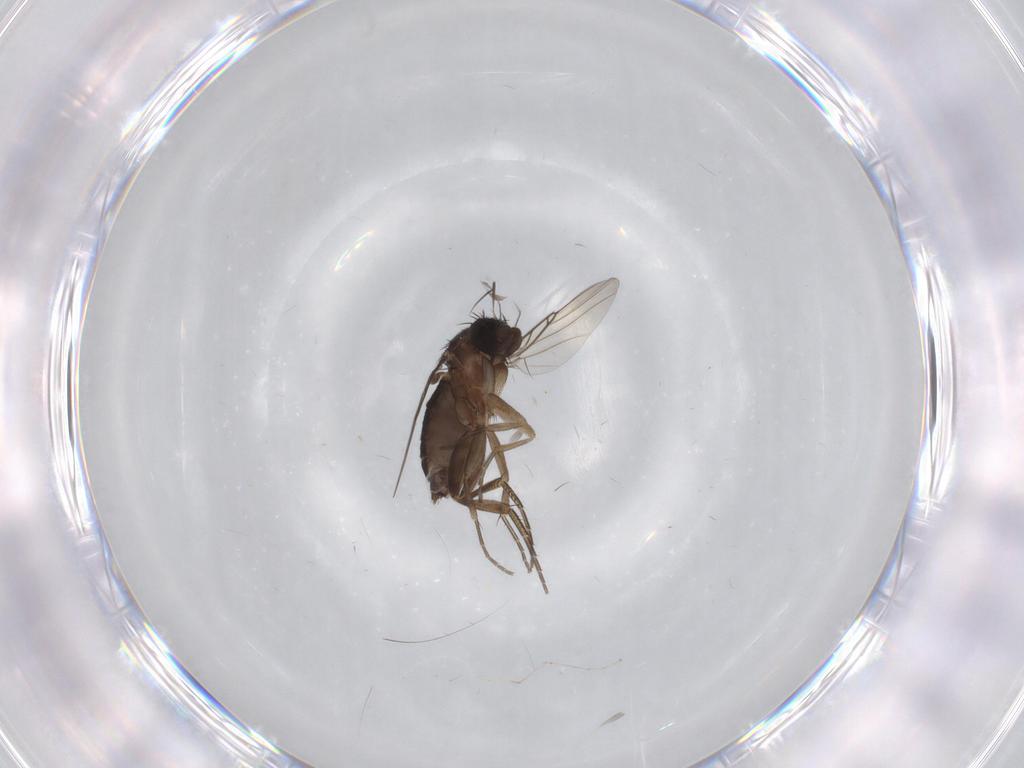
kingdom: Animalia
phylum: Arthropoda
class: Insecta
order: Diptera
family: Phoridae
